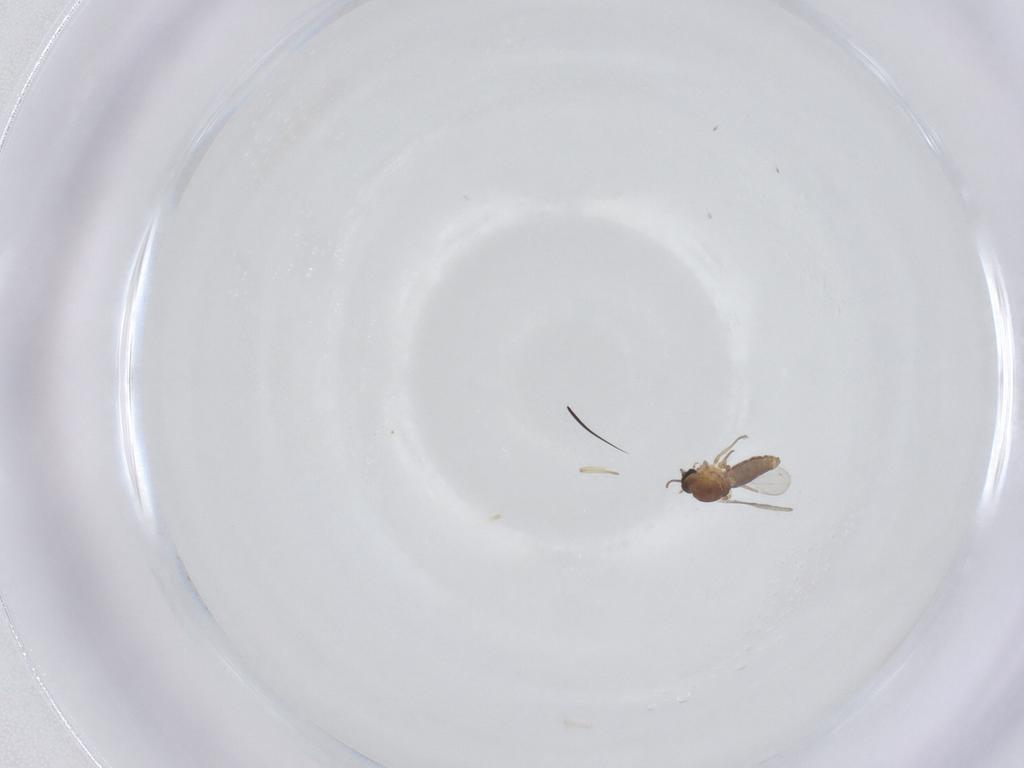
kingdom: Animalia
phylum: Arthropoda
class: Insecta
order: Diptera
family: Ceratopogonidae
